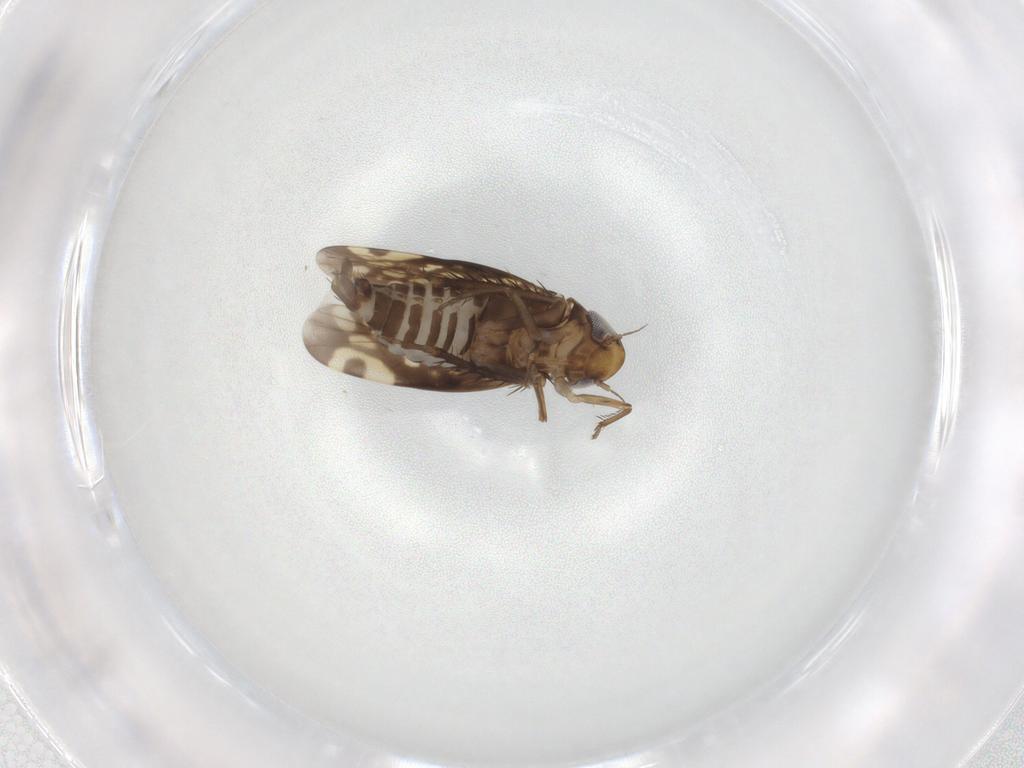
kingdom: Animalia
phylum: Arthropoda
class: Insecta
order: Hemiptera
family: Cicadellidae
